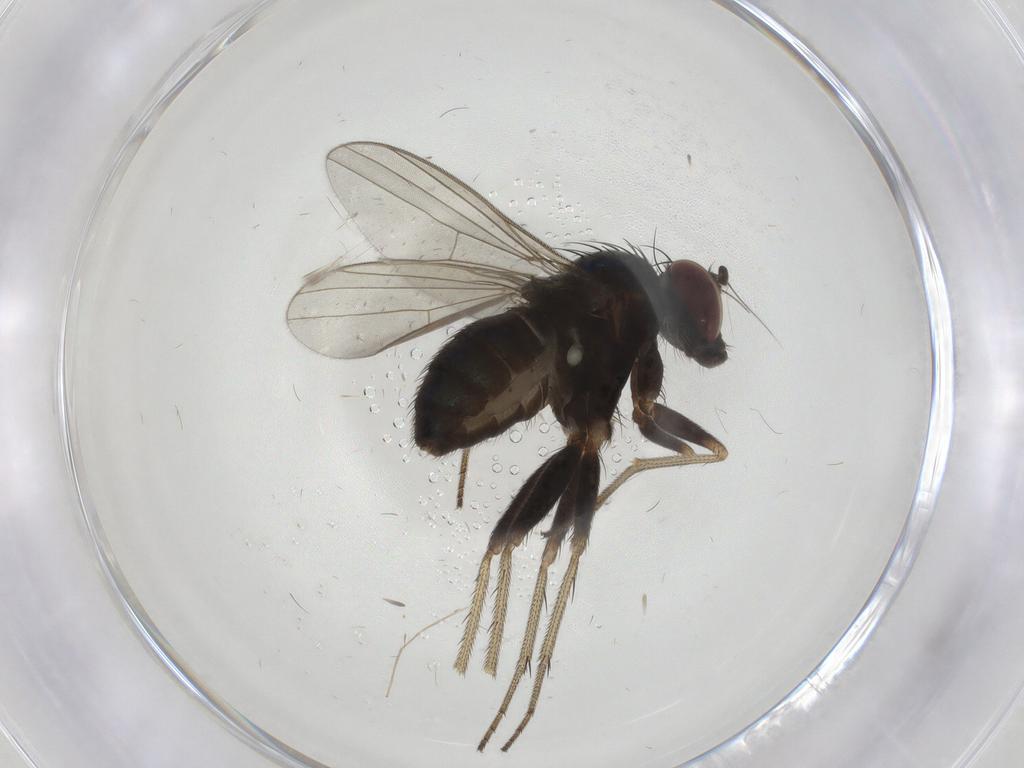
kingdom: Animalia
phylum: Arthropoda
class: Insecta
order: Diptera
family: Dolichopodidae
